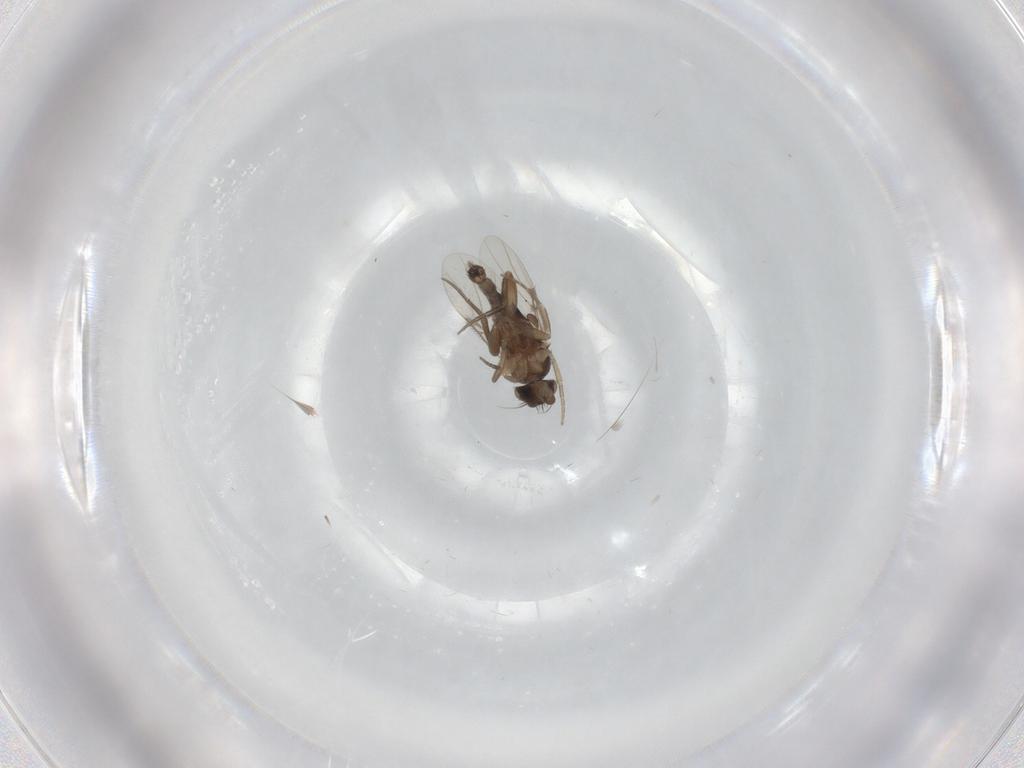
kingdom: Animalia
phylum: Arthropoda
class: Insecta
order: Diptera
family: Phoridae
